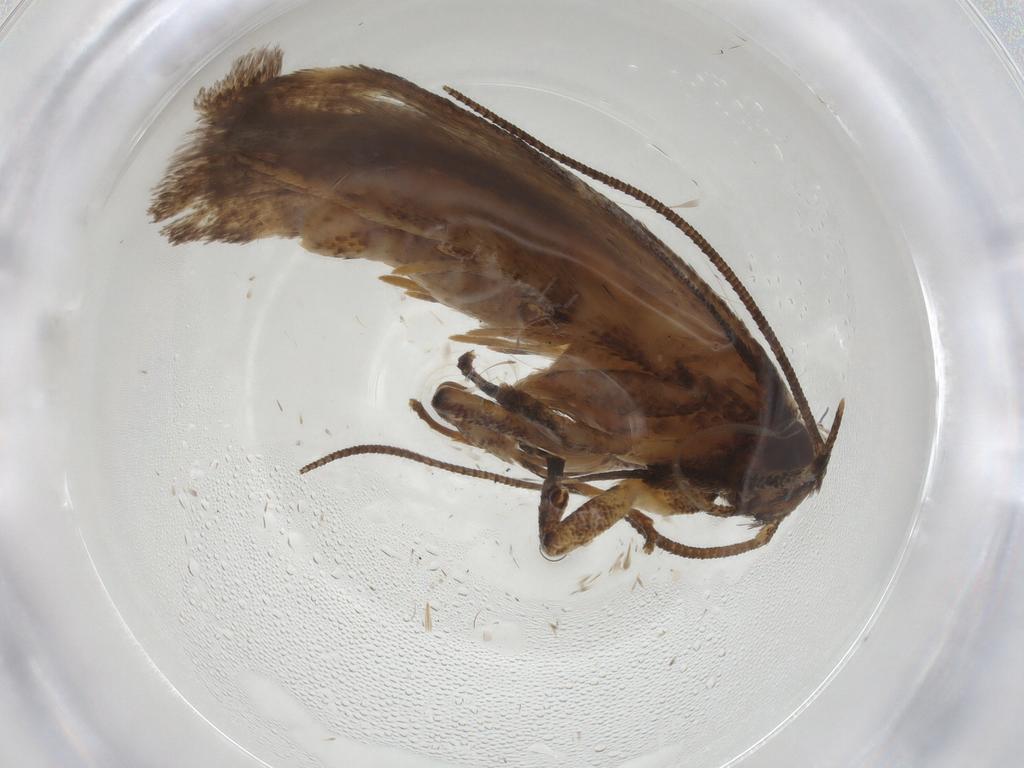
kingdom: Animalia
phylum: Arthropoda
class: Insecta
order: Lepidoptera
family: Gelechiidae
